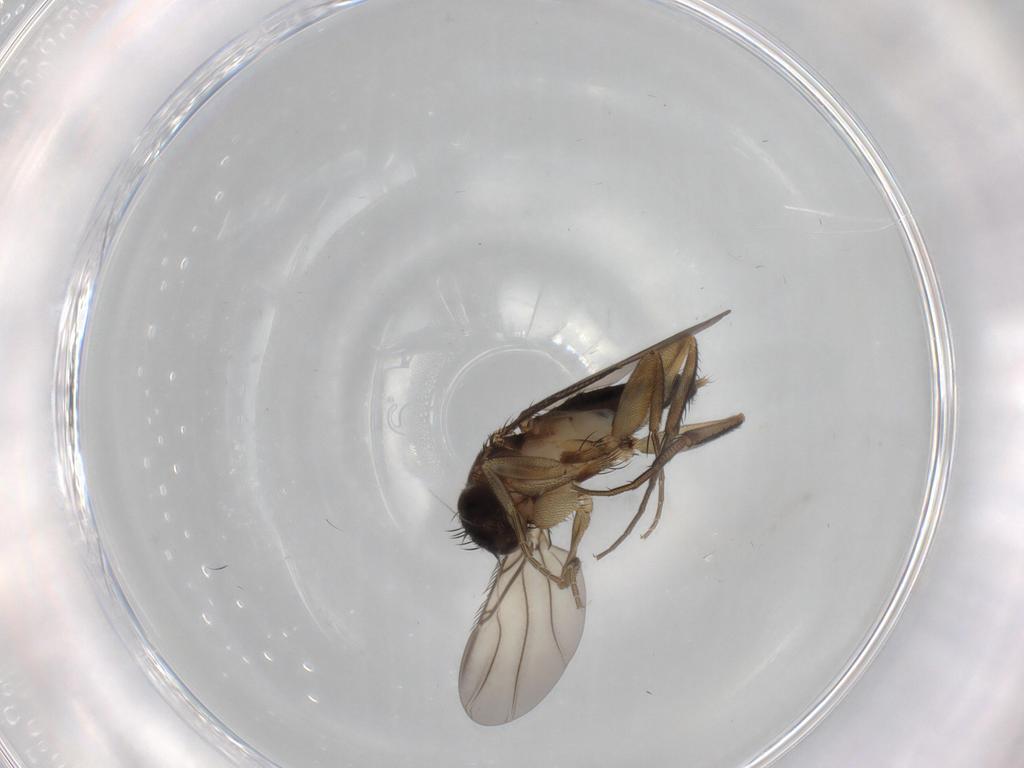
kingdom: Animalia
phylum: Arthropoda
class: Insecta
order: Diptera
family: Phoridae
